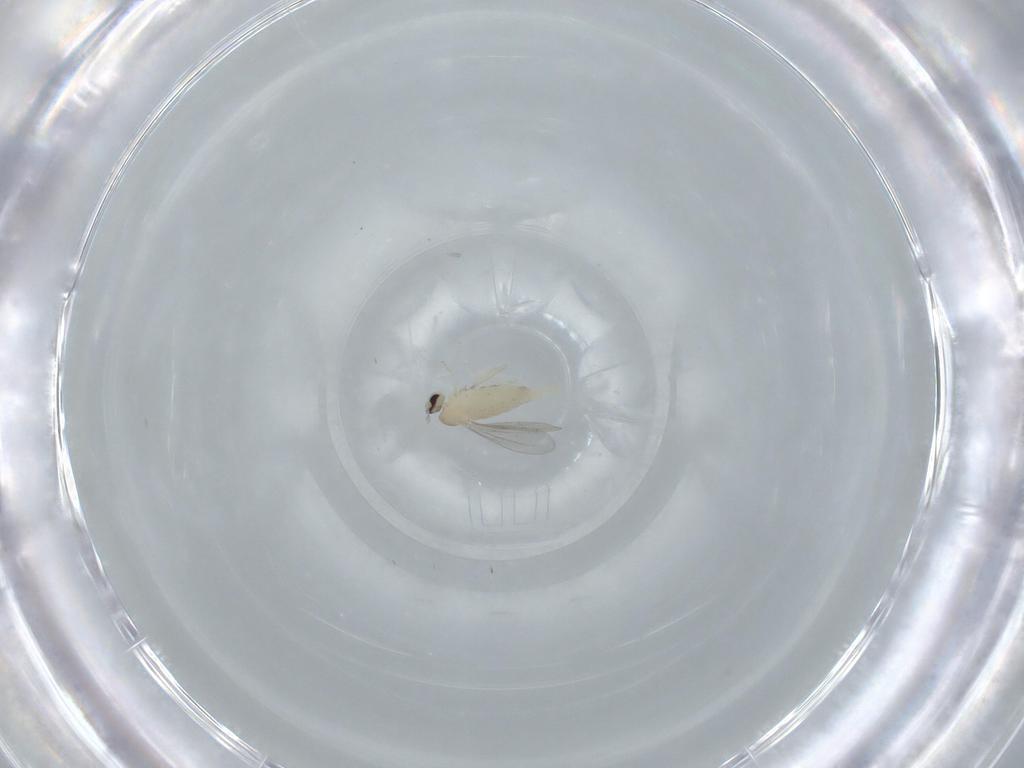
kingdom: Animalia
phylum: Arthropoda
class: Insecta
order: Diptera
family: Cecidomyiidae
